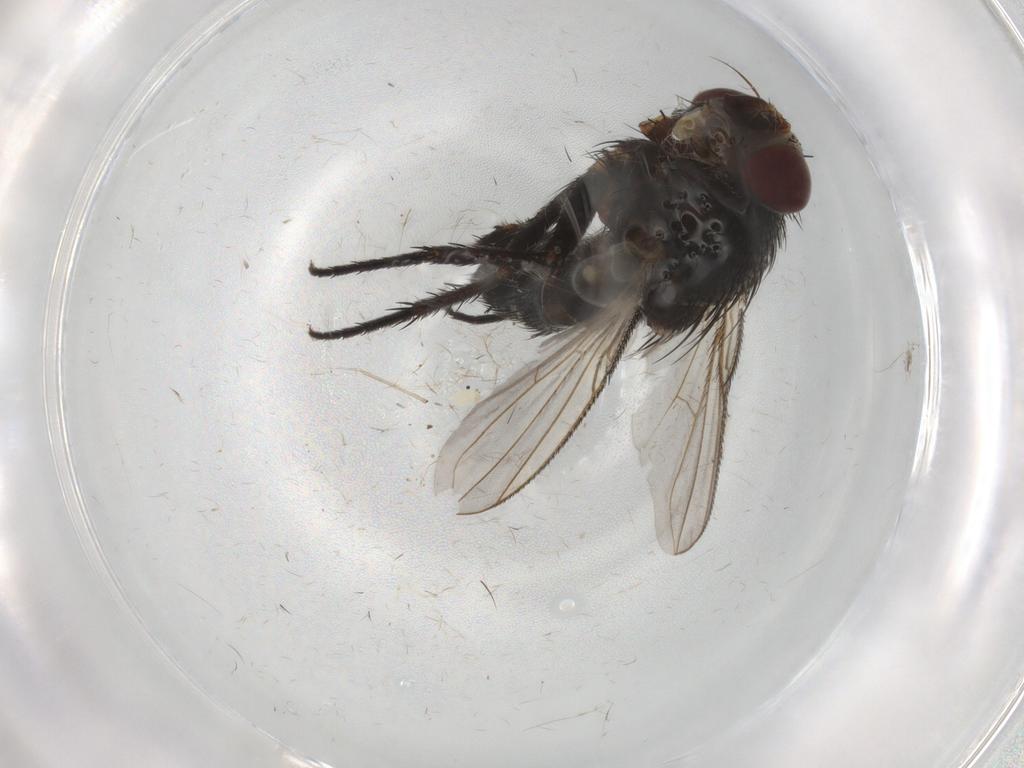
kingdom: Animalia
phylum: Arthropoda
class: Insecta
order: Diptera
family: Tachinidae
